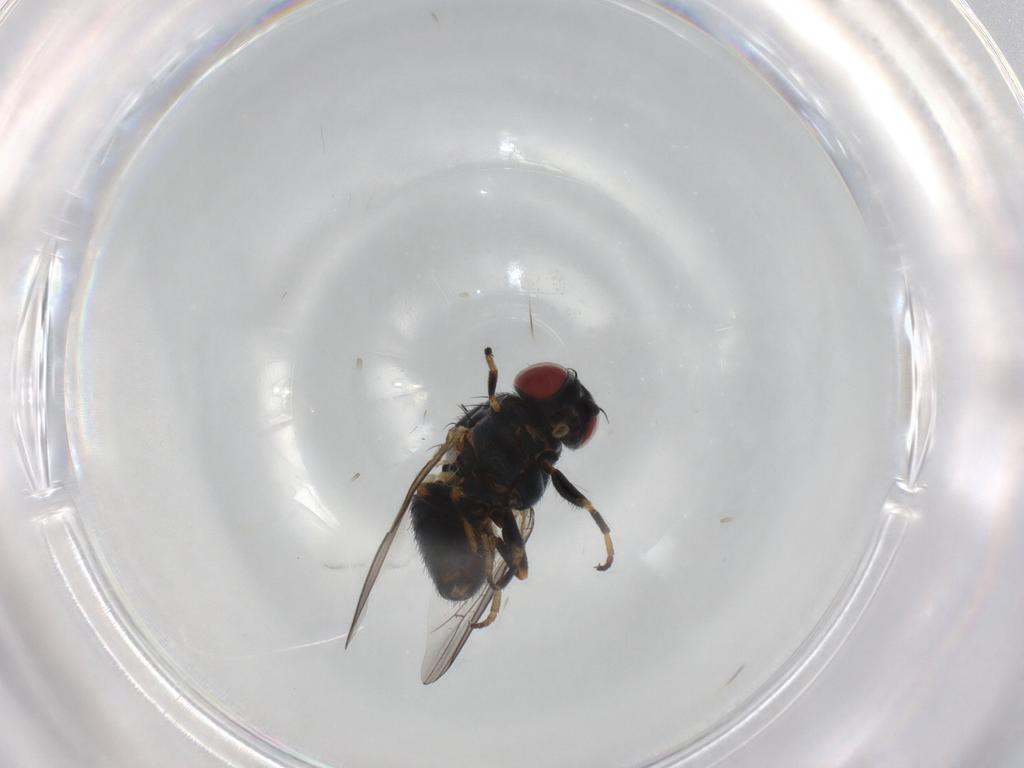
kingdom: Animalia
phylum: Arthropoda
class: Insecta
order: Diptera
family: Chamaemyiidae
